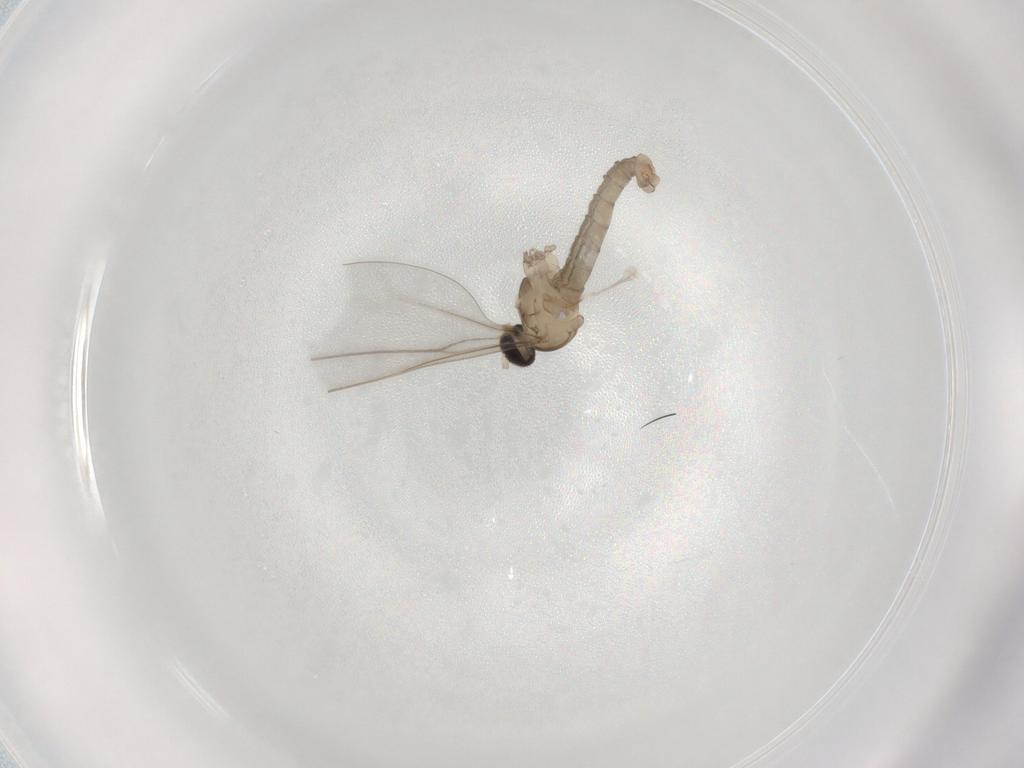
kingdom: Animalia
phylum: Arthropoda
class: Insecta
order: Diptera
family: Cecidomyiidae
